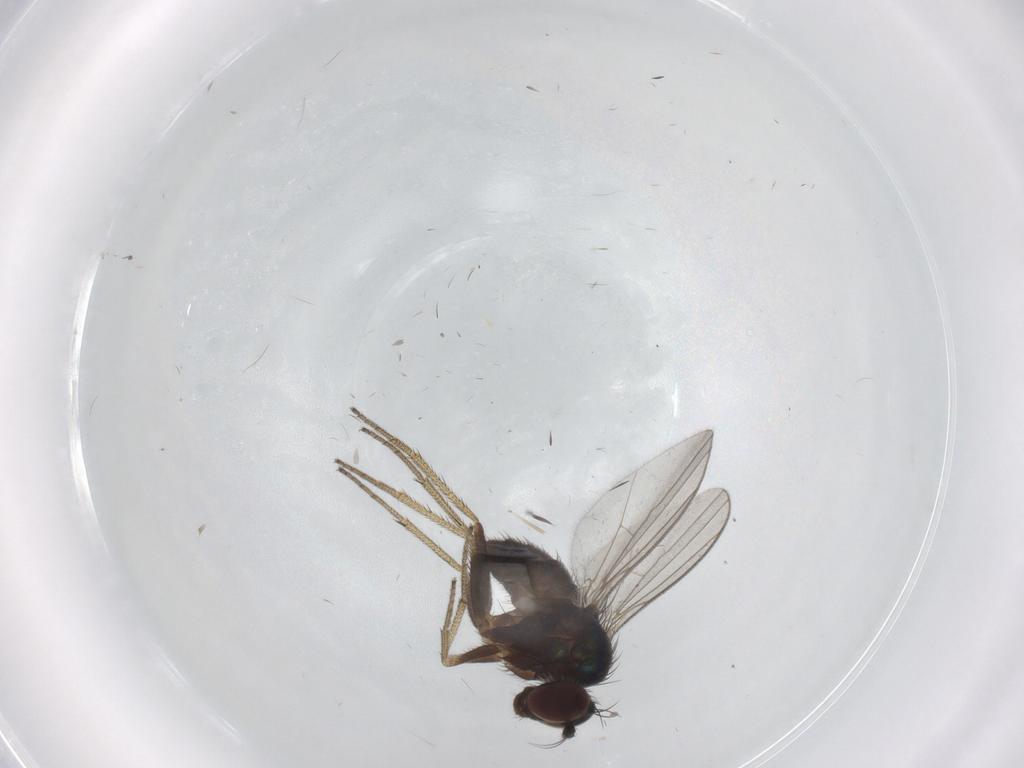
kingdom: Animalia
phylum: Arthropoda
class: Insecta
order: Diptera
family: Dolichopodidae
